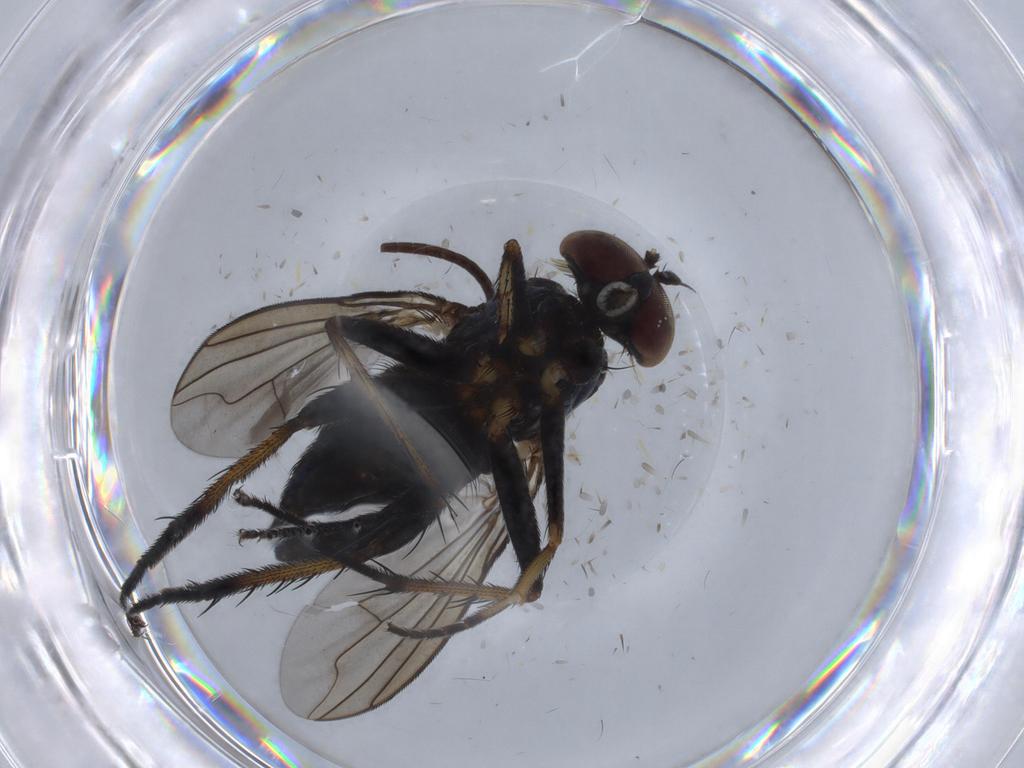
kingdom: Animalia
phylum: Arthropoda
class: Insecta
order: Diptera
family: Dolichopodidae
